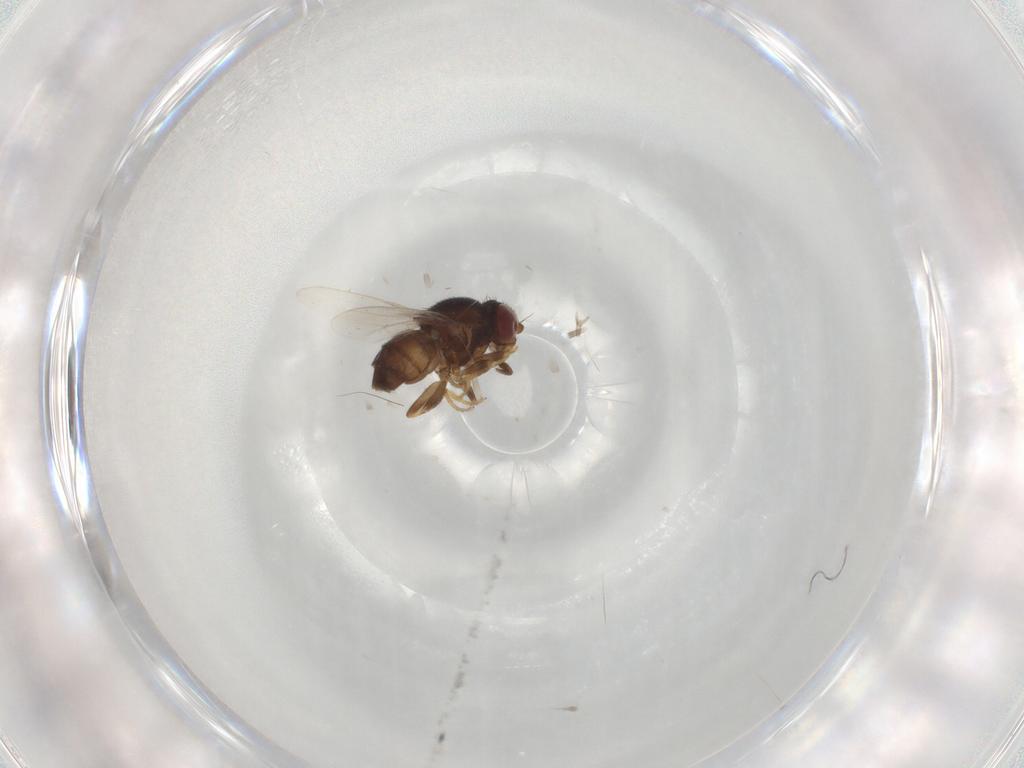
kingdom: Animalia
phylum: Arthropoda
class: Insecta
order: Diptera
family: Chloropidae
